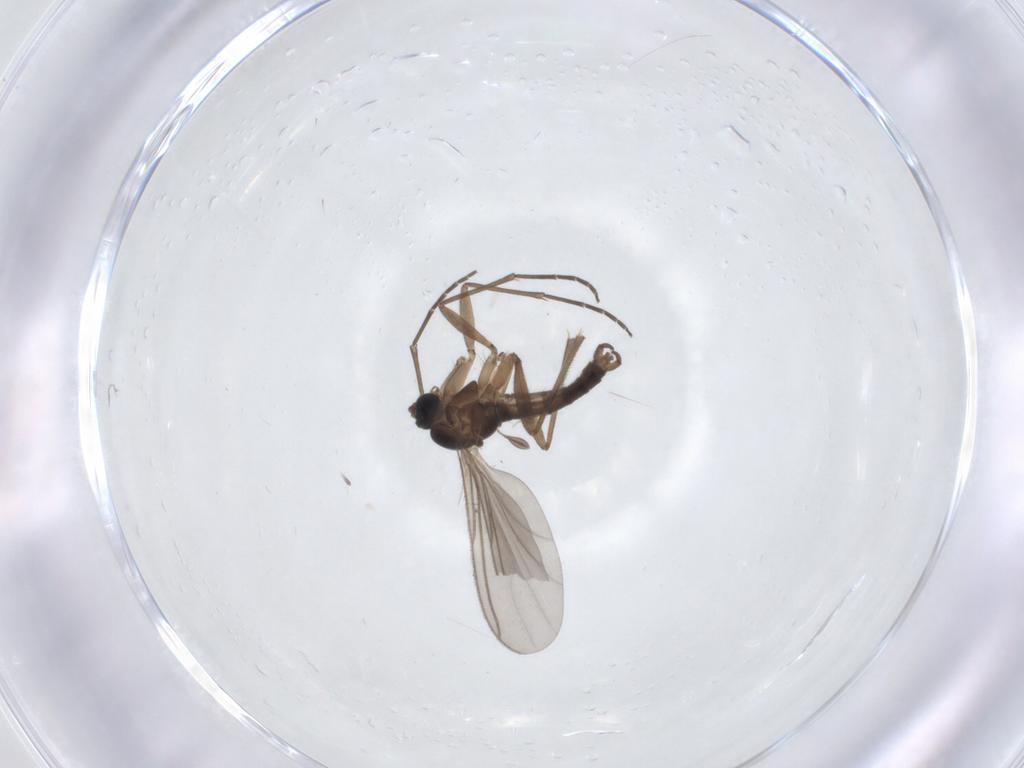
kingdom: Animalia
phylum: Arthropoda
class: Insecta
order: Diptera
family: Sciaridae
